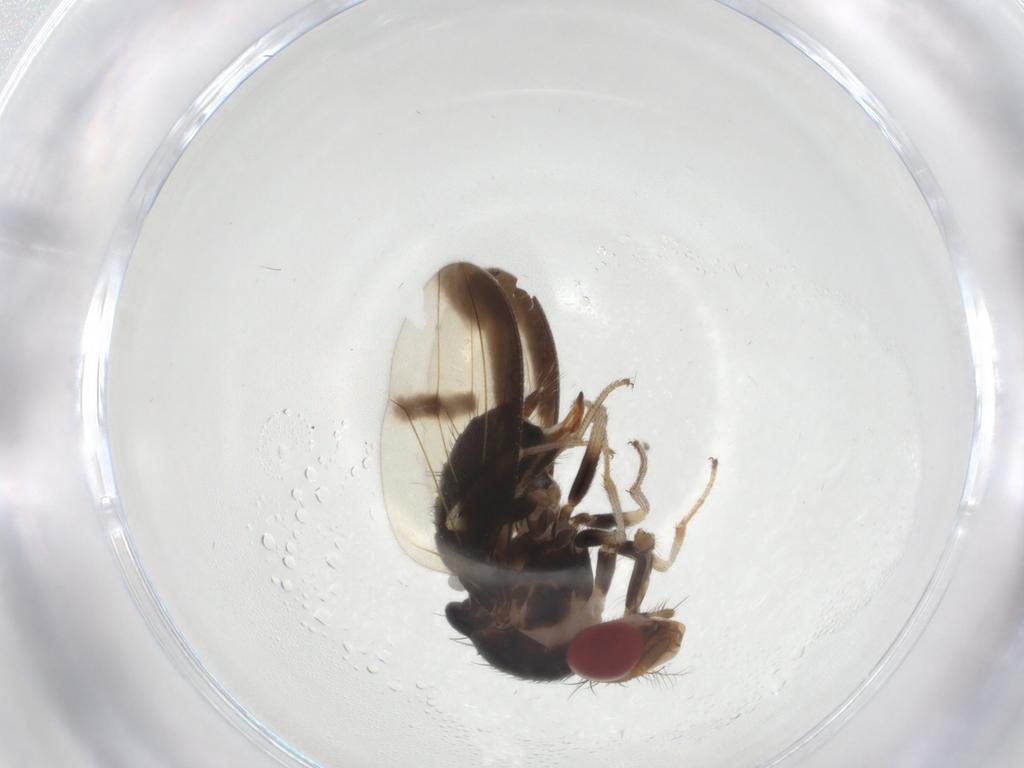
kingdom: Animalia
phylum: Arthropoda
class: Insecta
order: Diptera
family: Drosophilidae
